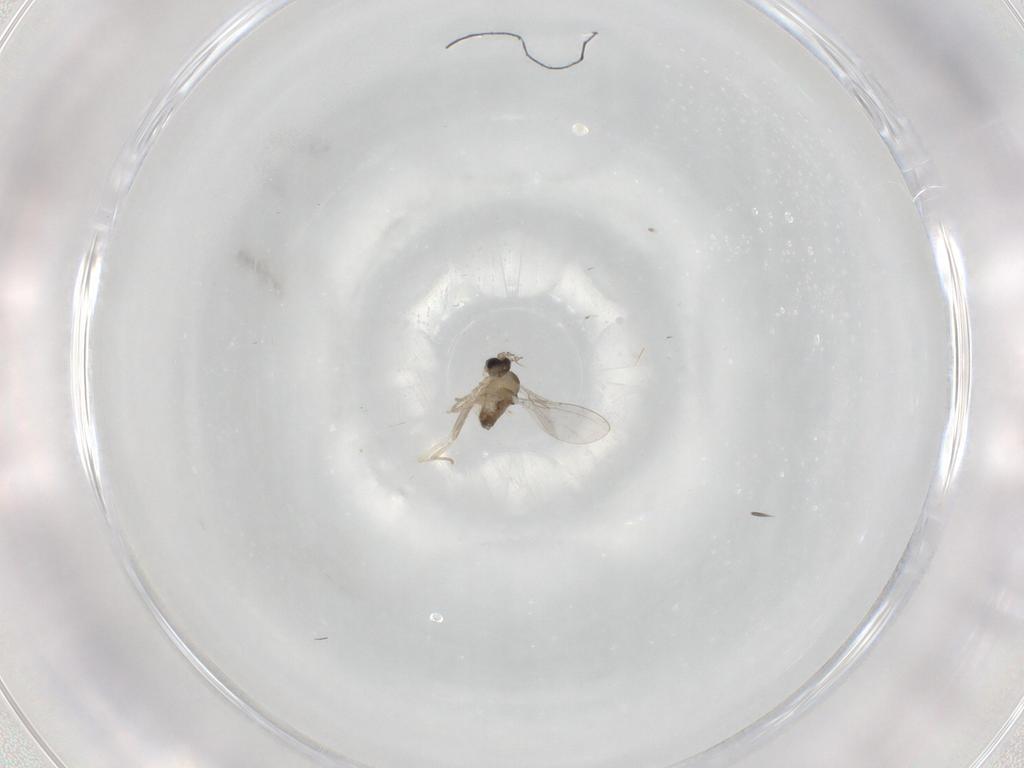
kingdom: Animalia
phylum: Arthropoda
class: Insecta
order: Diptera
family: Cecidomyiidae
